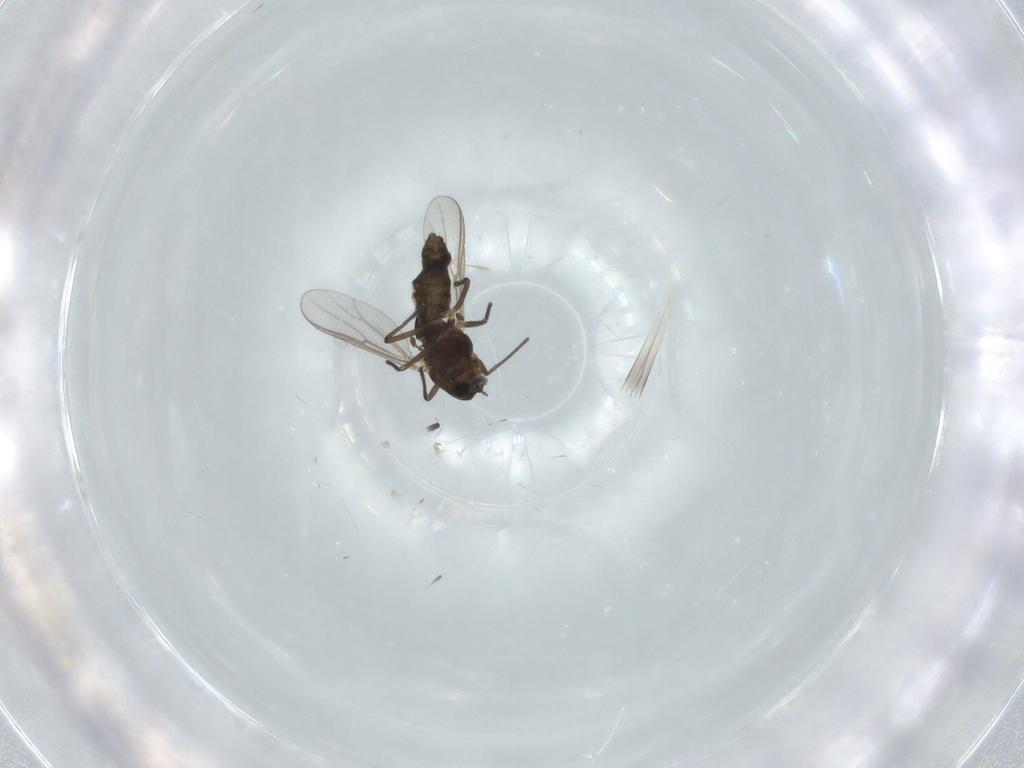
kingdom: Animalia
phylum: Arthropoda
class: Insecta
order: Diptera
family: Chironomidae
